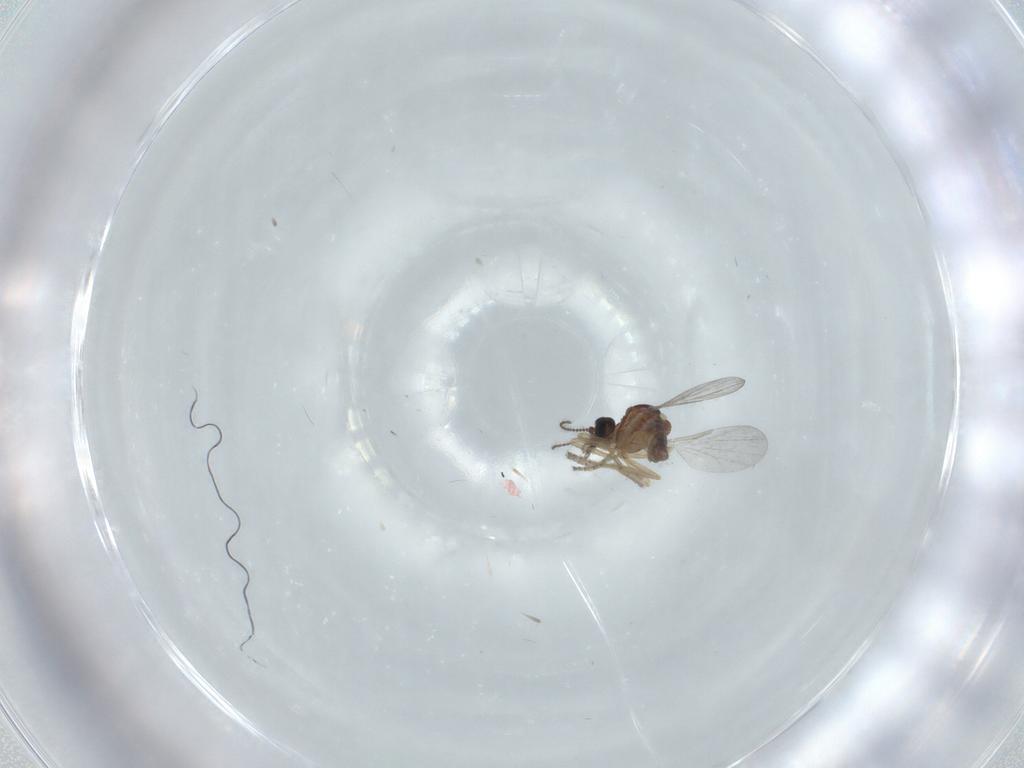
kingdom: Animalia
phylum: Arthropoda
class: Insecta
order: Diptera
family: Ceratopogonidae
